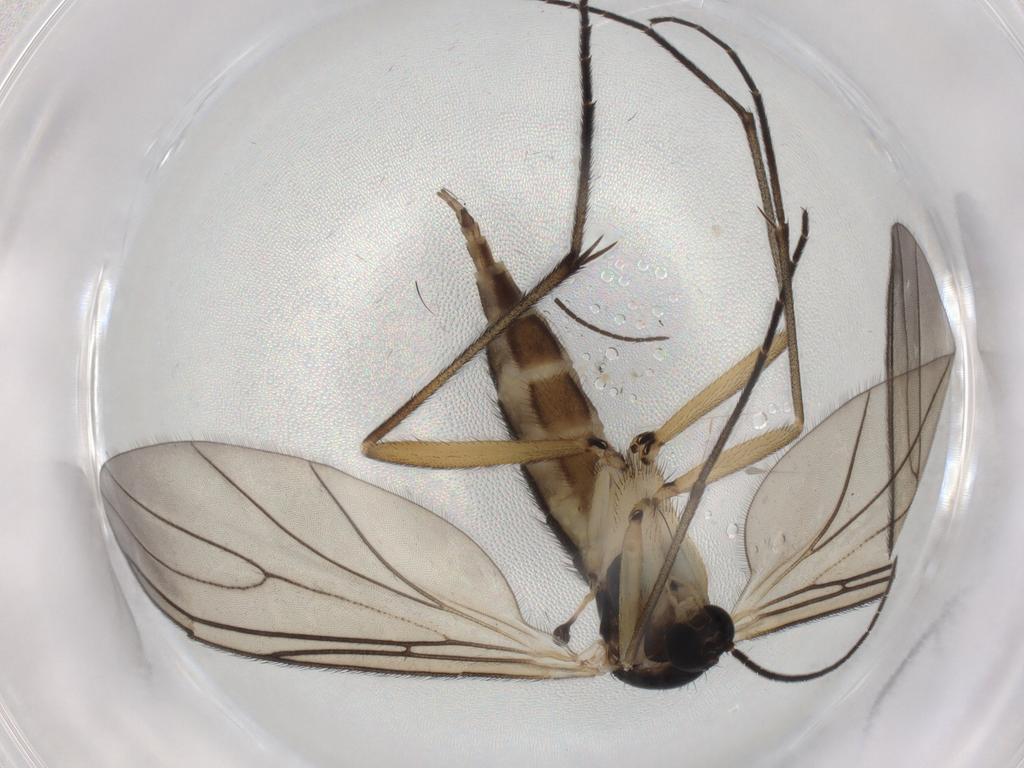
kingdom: Animalia
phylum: Arthropoda
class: Insecta
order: Diptera
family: Sciaridae
